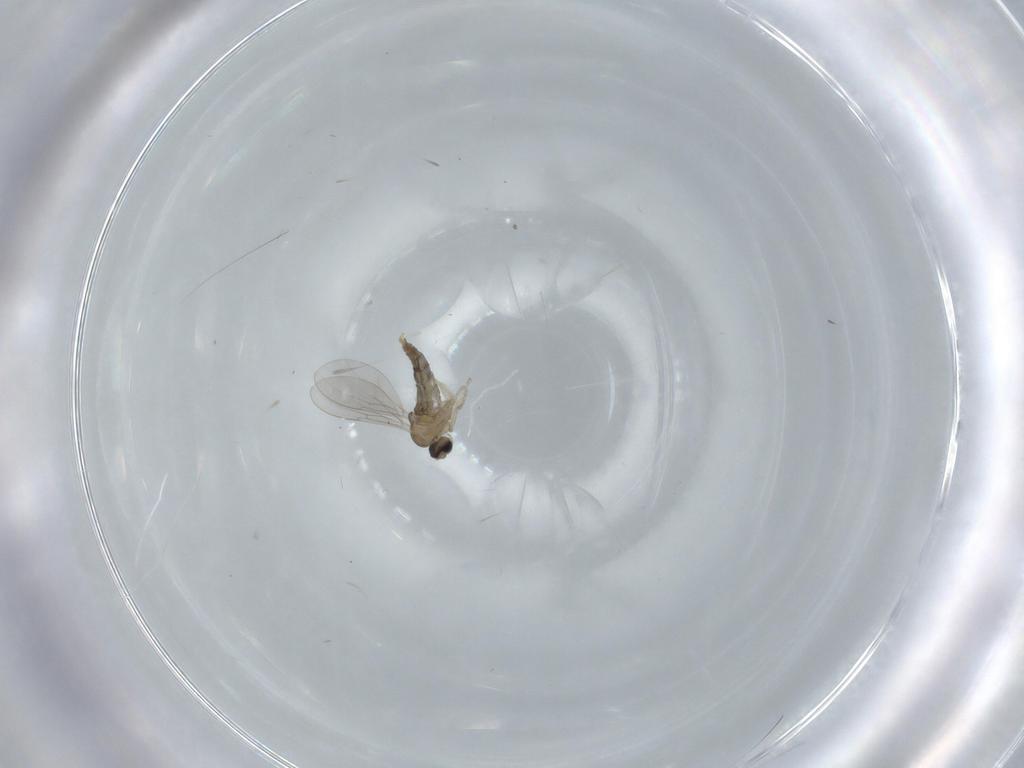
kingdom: Animalia
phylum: Arthropoda
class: Insecta
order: Diptera
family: Cecidomyiidae
